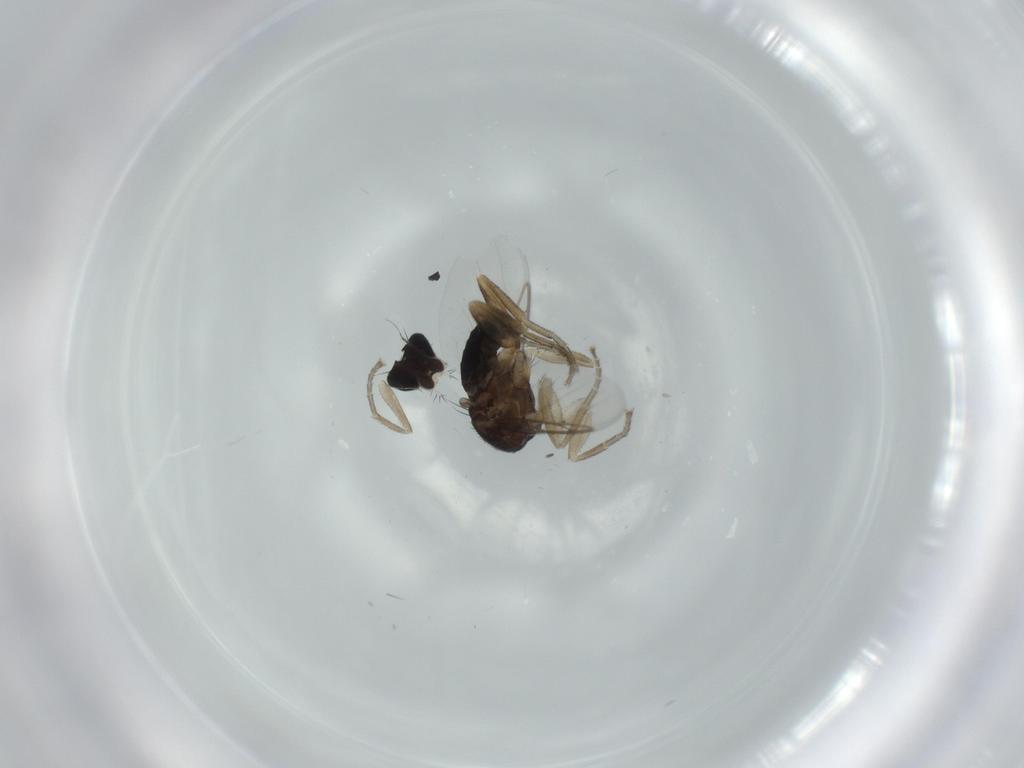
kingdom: Animalia
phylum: Arthropoda
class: Insecta
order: Diptera
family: Phoridae
